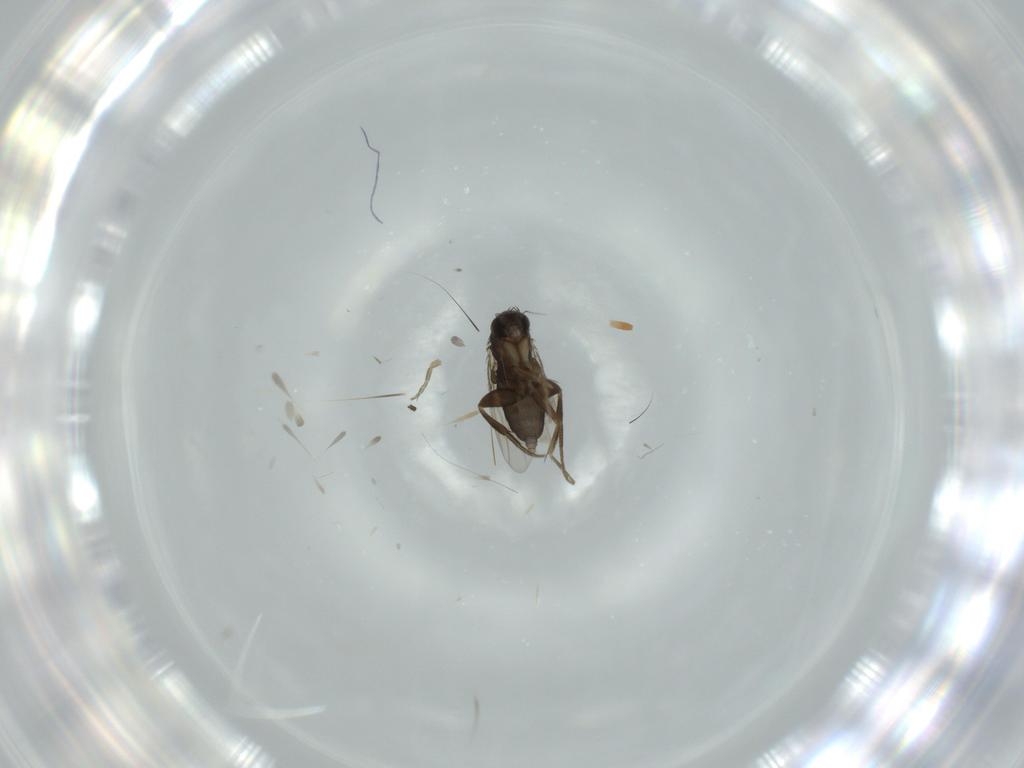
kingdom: Animalia
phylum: Arthropoda
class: Insecta
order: Diptera
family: Phoridae
